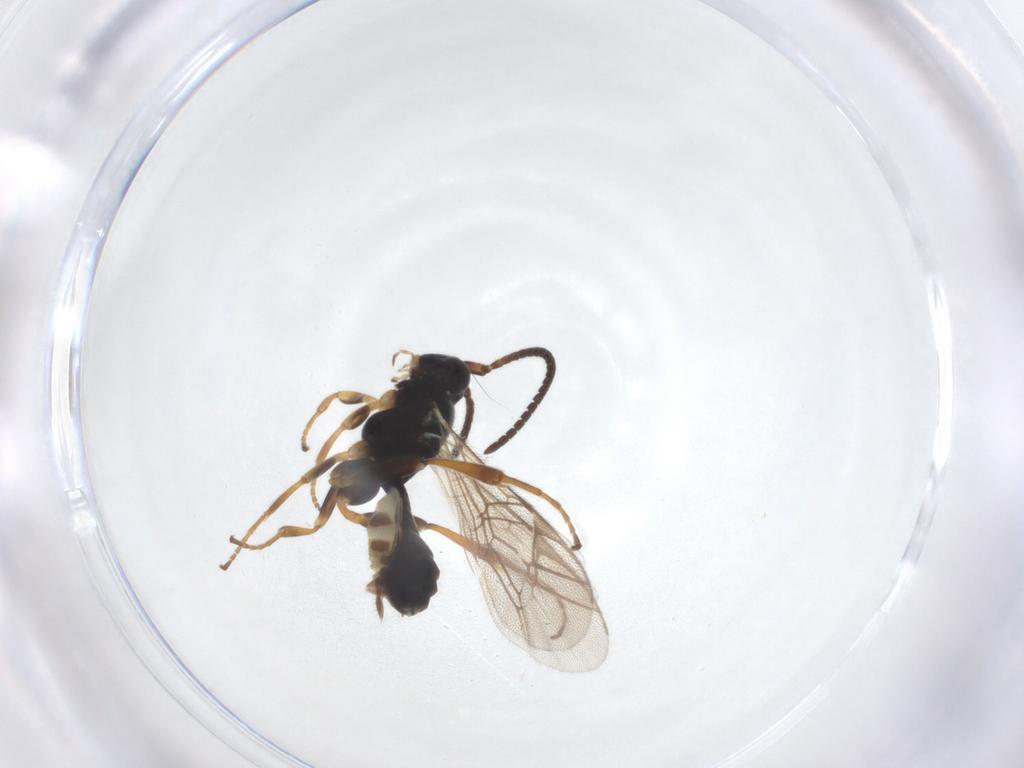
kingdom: Animalia
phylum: Arthropoda
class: Insecta
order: Hymenoptera
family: Ichneumonidae
